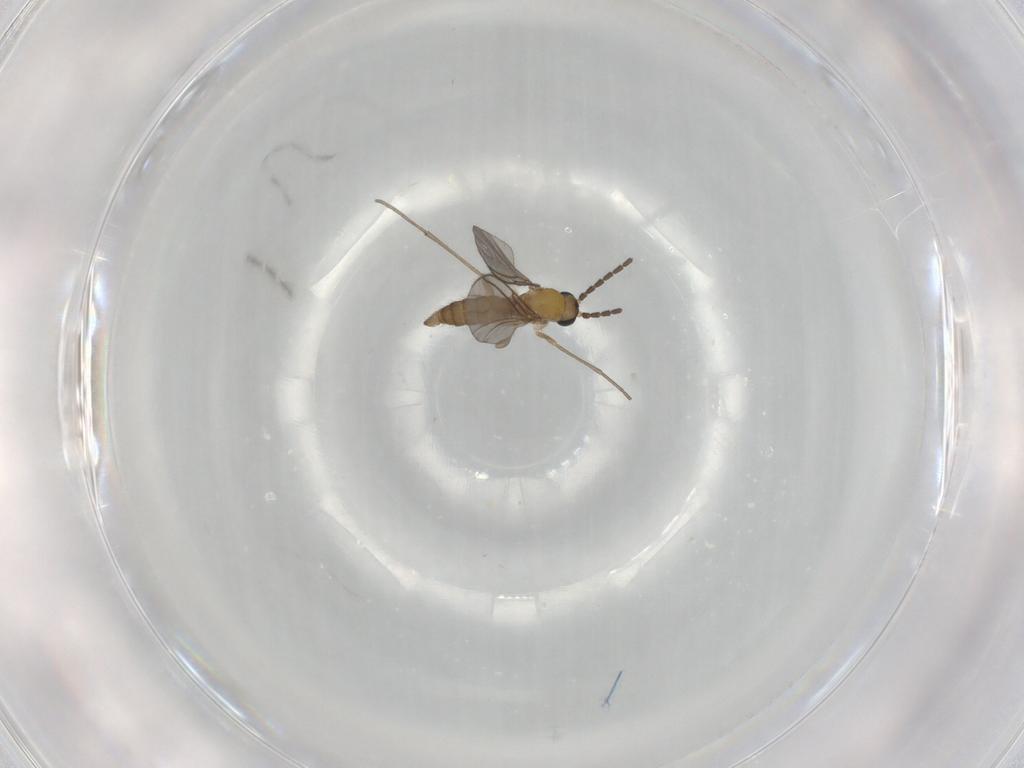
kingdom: Animalia
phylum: Arthropoda
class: Insecta
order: Diptera
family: Sciaridae
